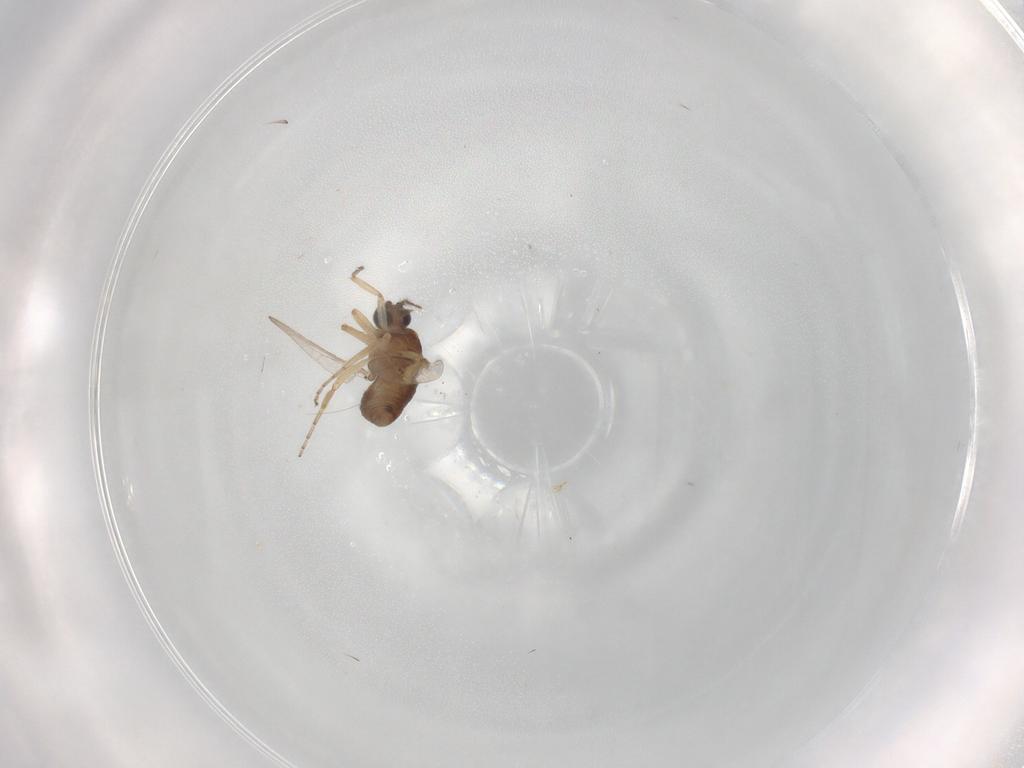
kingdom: Animalia
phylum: Arthropoda
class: Insecta
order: Diptera
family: Ceratopogonidae
